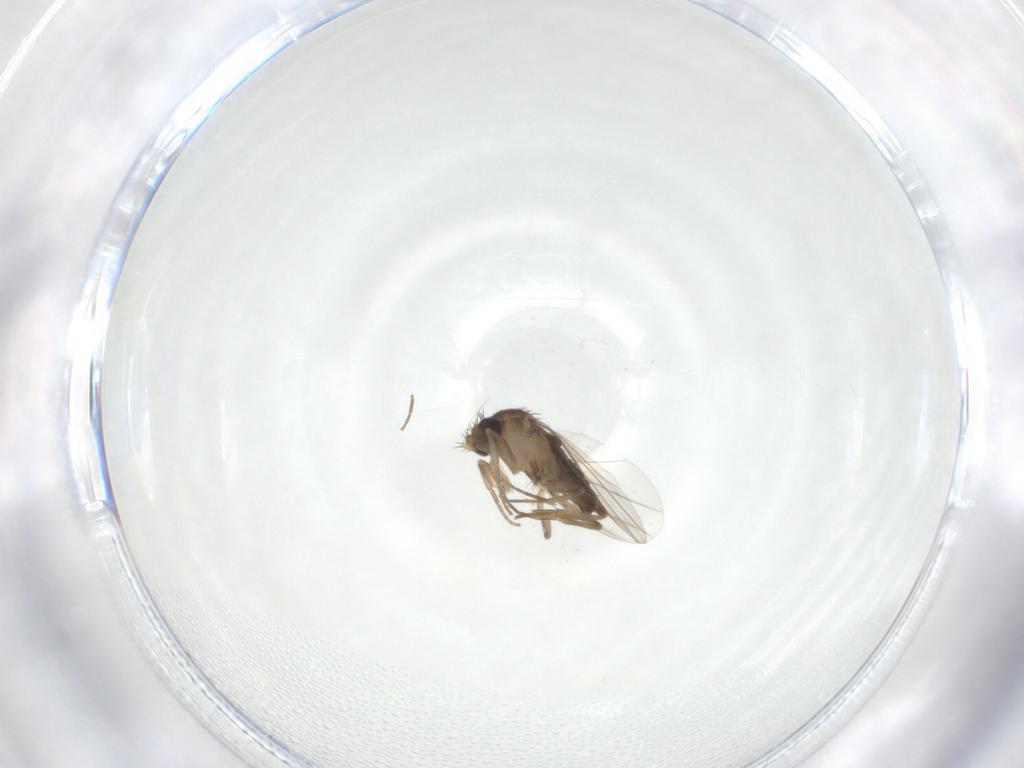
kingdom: Animalia
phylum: Arthropoda
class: Insecta
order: Diptera
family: Phoridae
